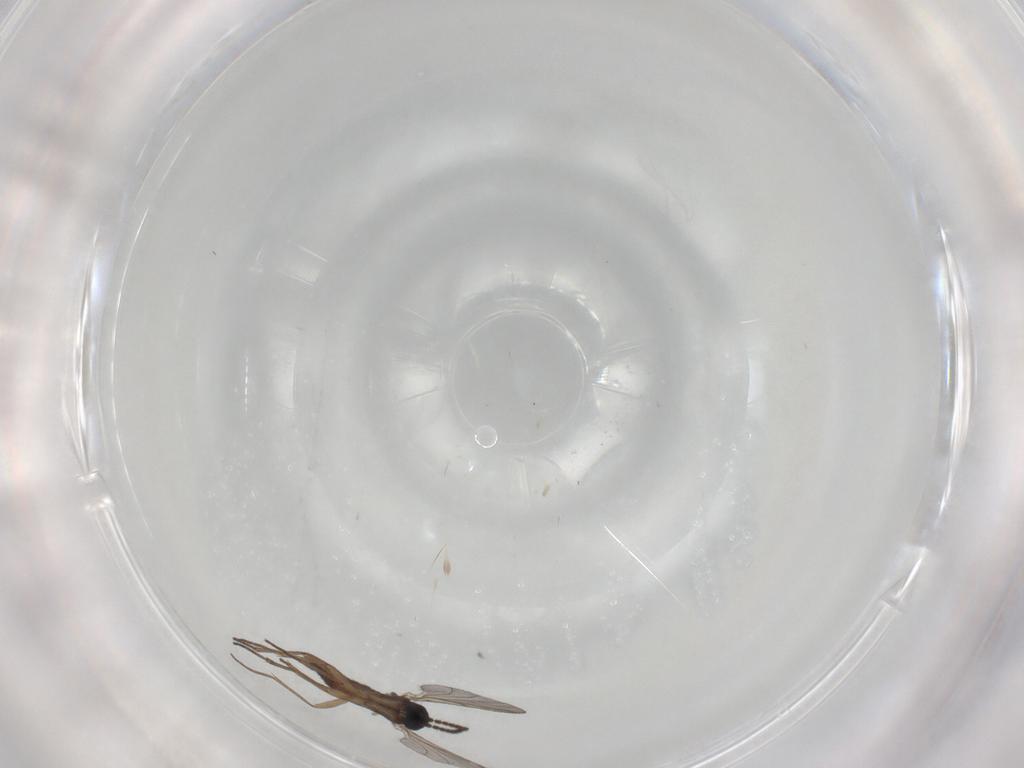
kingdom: Animalia
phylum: Arthropoda
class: Insecta
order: Diptera
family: Sciaridae
